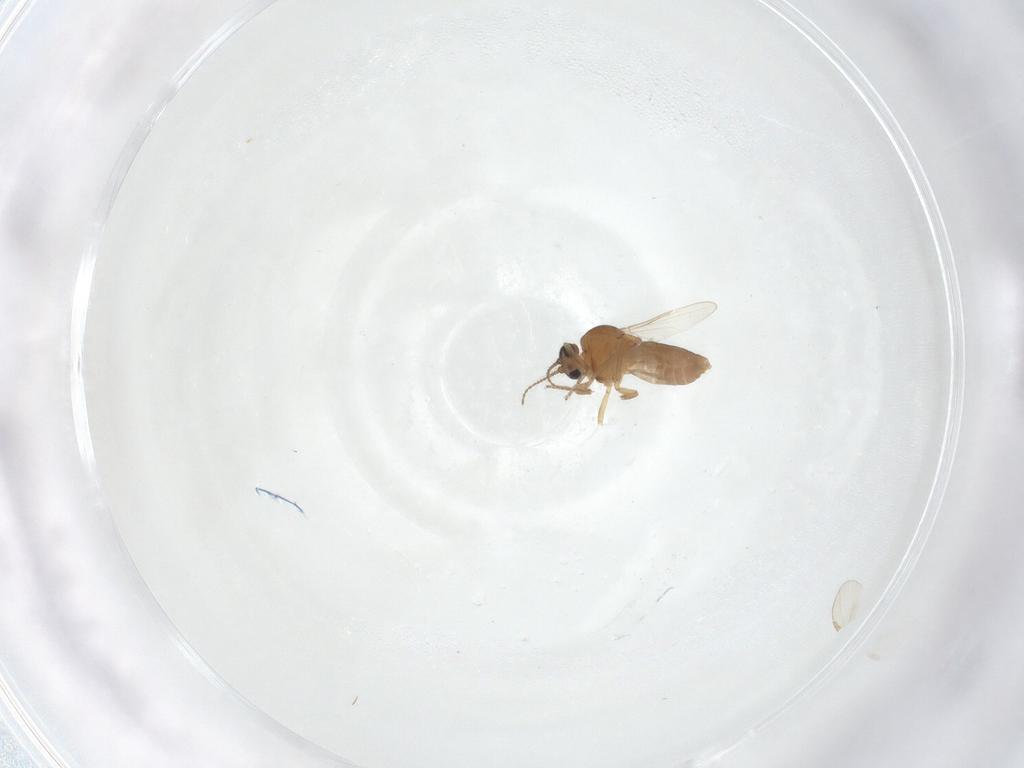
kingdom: Animalia
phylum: Arthropoda
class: Insecta
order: Diptera
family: Ceratopogonidae
